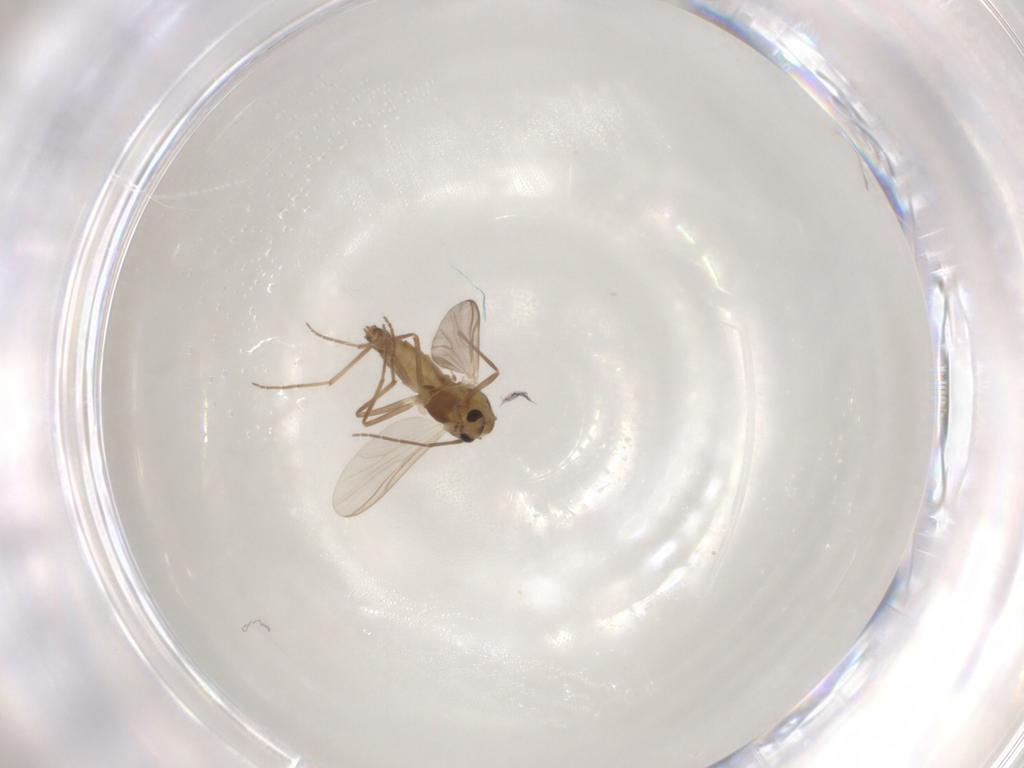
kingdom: Animalia
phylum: Arthropoda
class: Insecta
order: Diptera
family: Chironomidae
